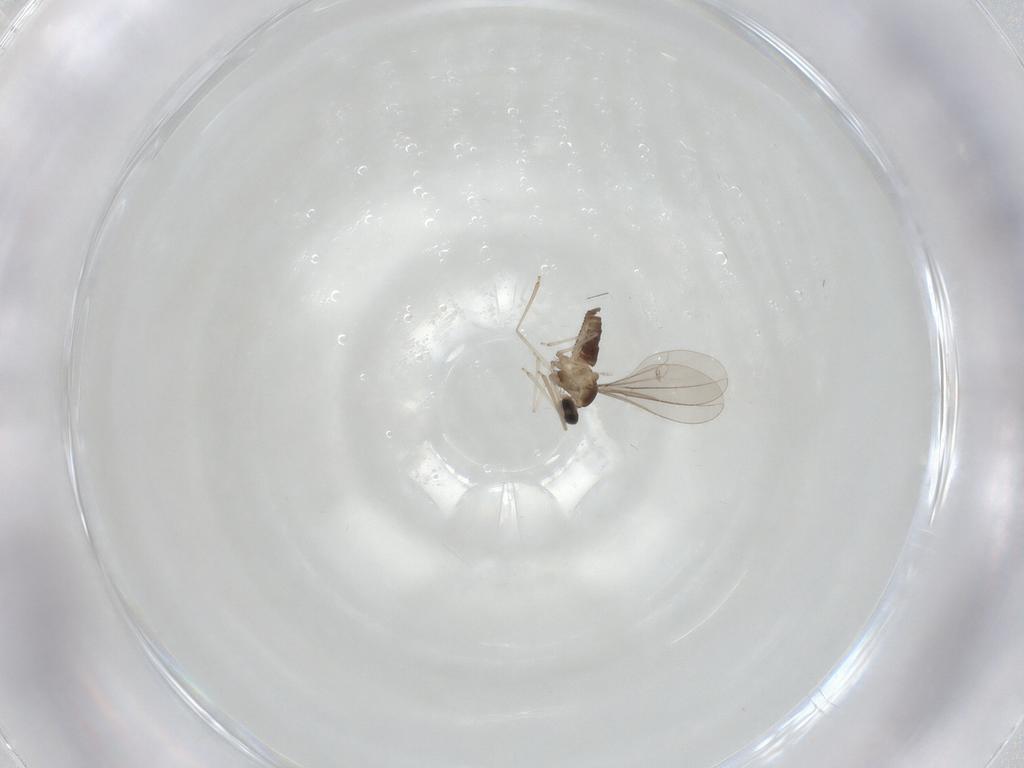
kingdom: Animalia
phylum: Arthropoda
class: Insecta
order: Diptera
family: Cecidomyiidae
